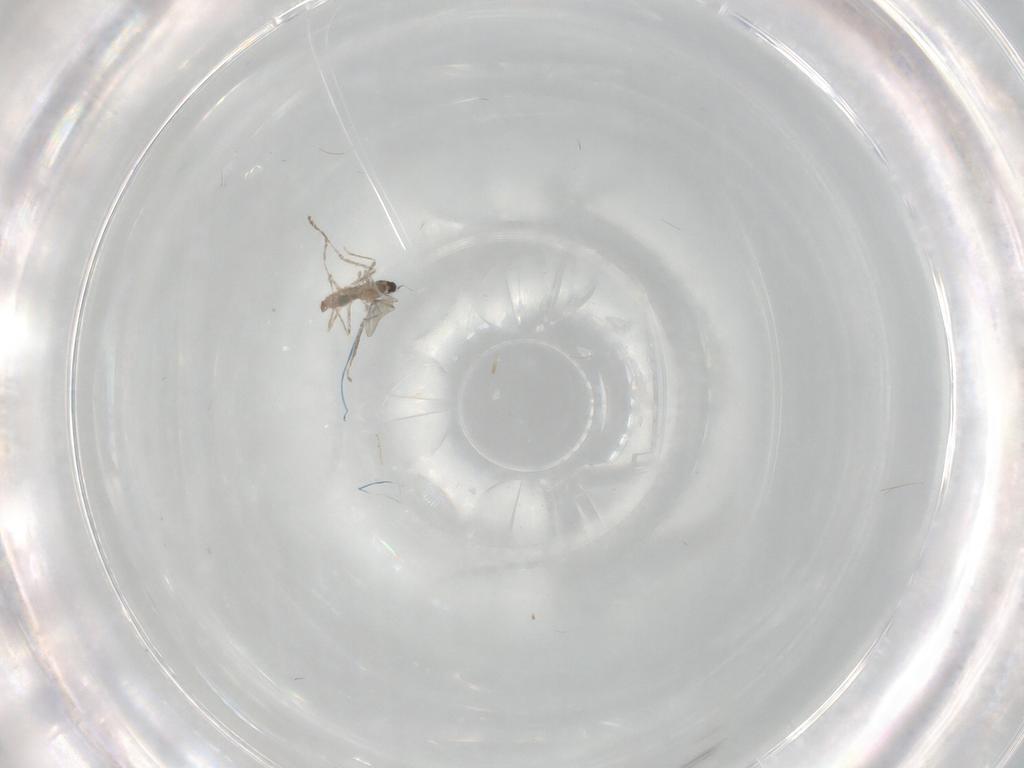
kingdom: Animalia
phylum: Arthropoda
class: Insecta
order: Diptera
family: Cecidomyiidae
